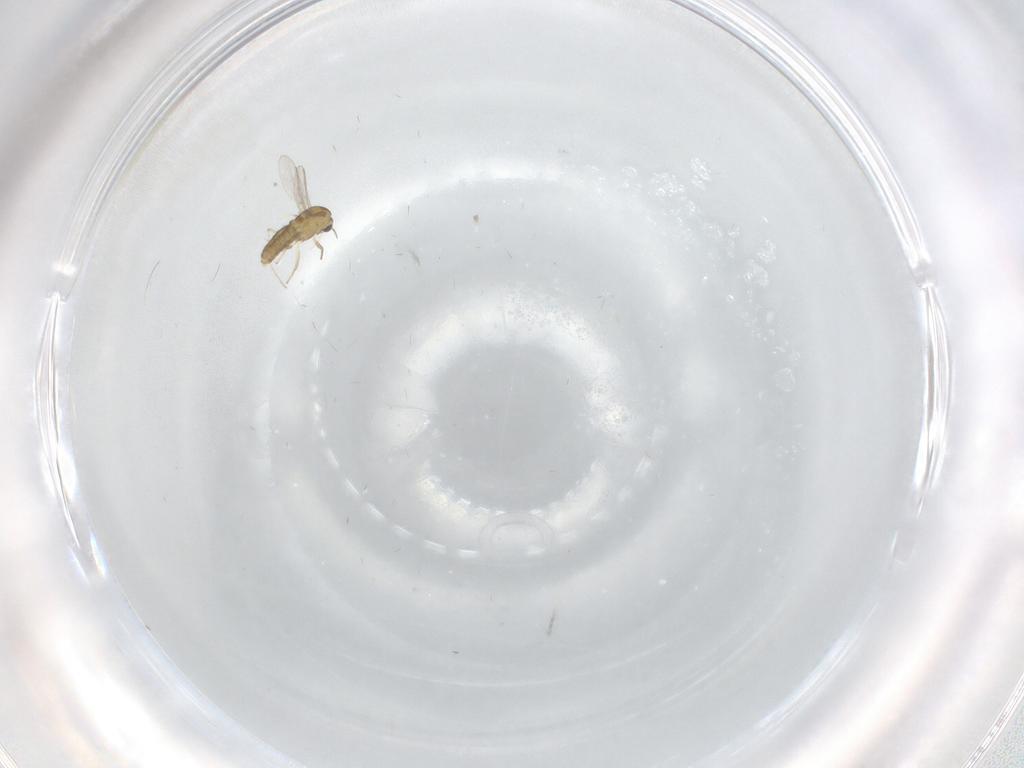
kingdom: Animalia
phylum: Arthropoda
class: Insecta
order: Diptera
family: Chironomidae
